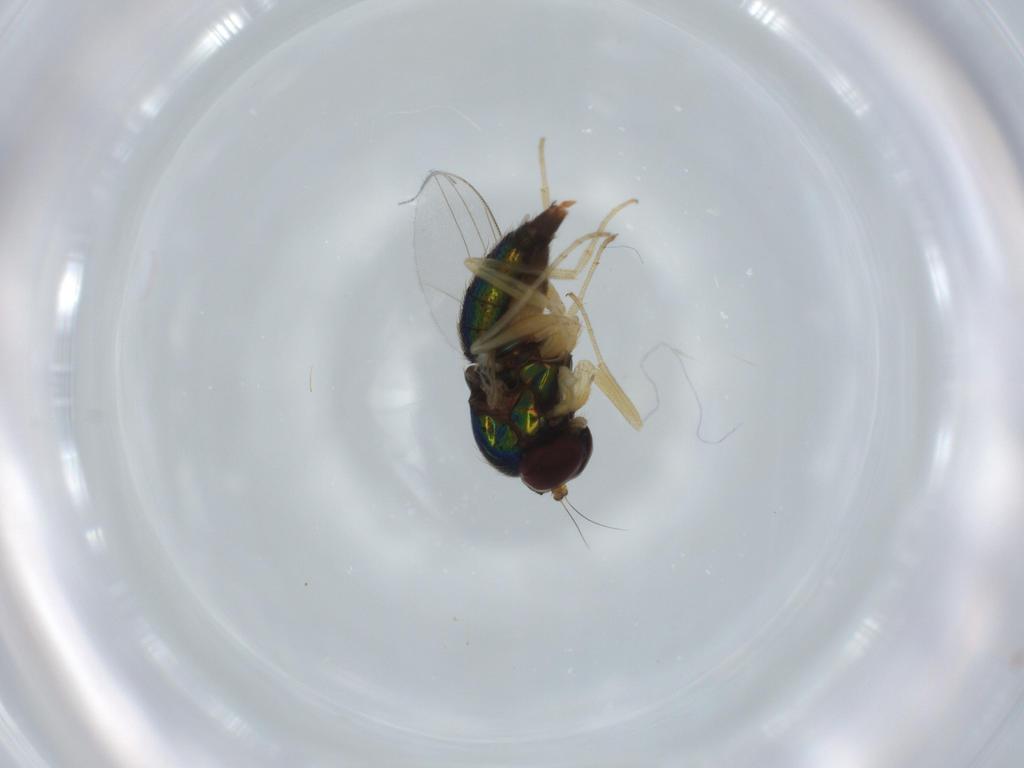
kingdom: Animalia
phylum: Arthropoda
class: Insecta
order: Diptera
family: Dolichopodidae
